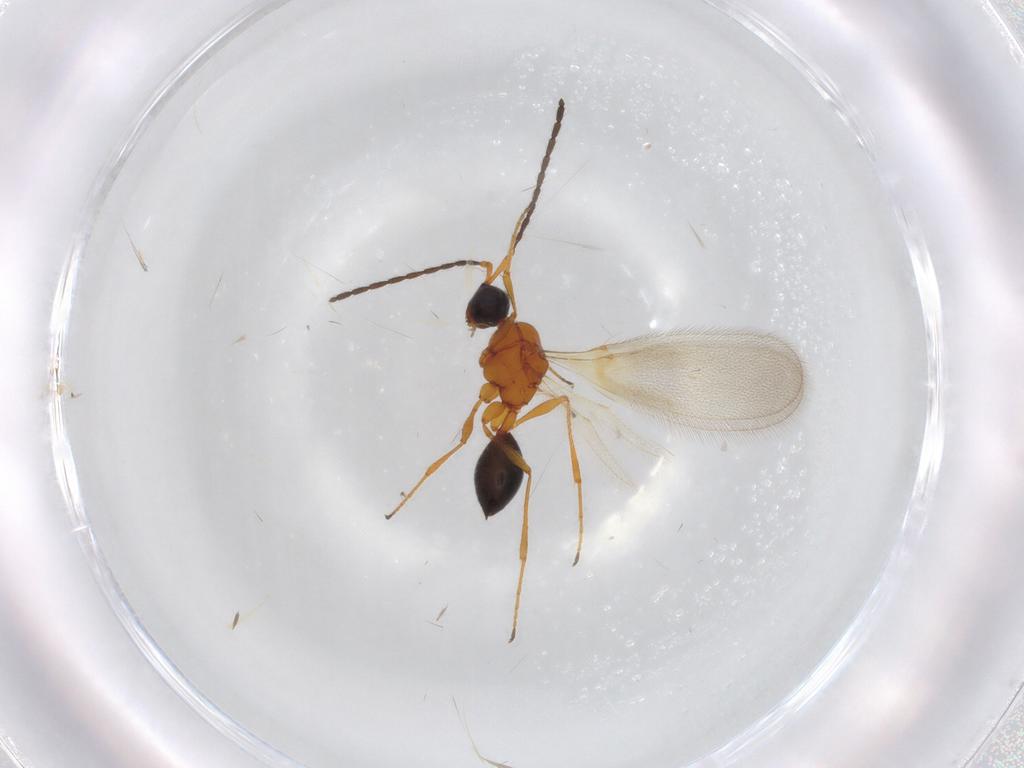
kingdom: Animalia
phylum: Arthropoda
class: Insecta
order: Hymenoptera
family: Diapriidae
